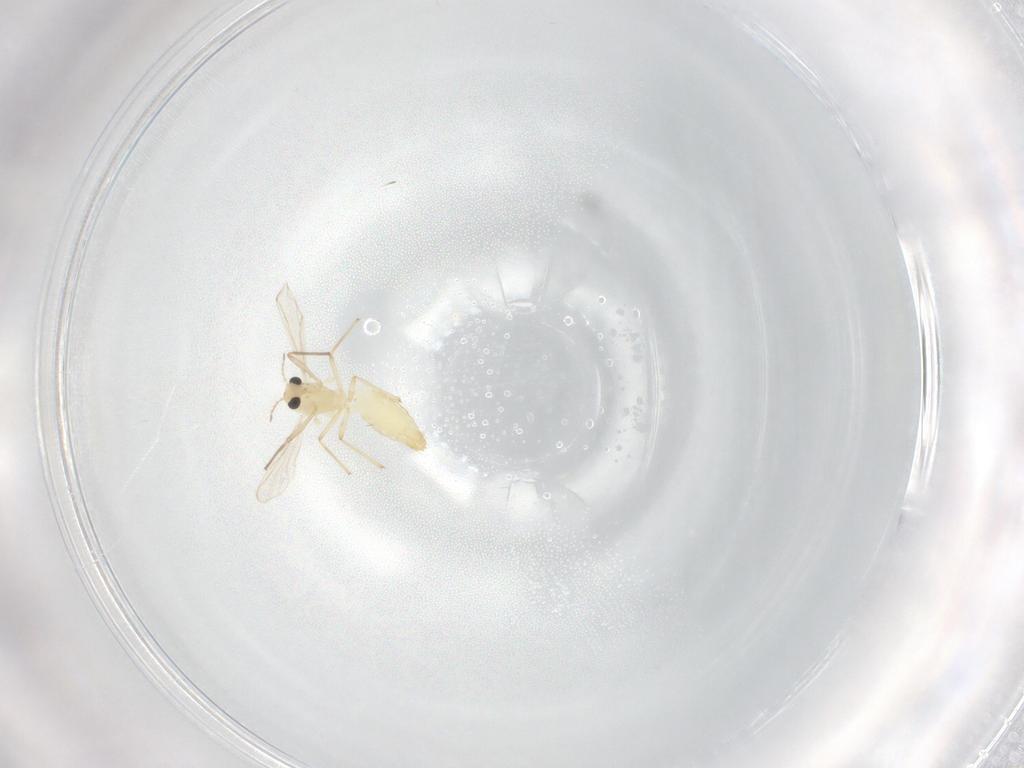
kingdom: Animalia
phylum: Arthropoda
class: Insecta
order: Diptera
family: Chironomidae
